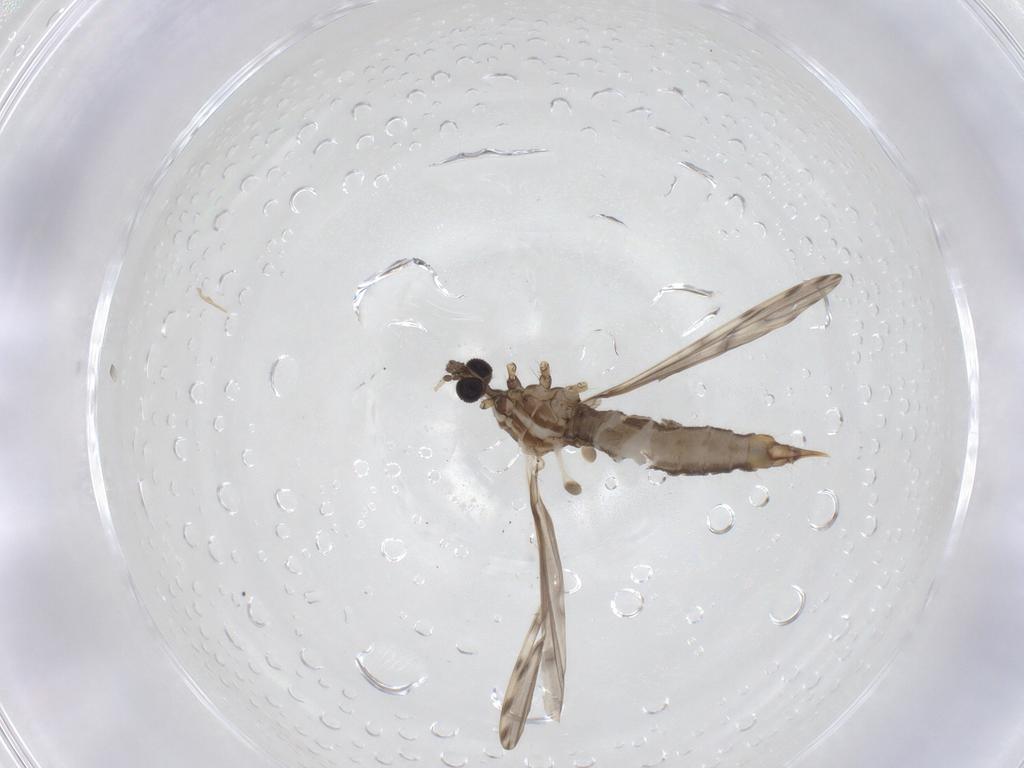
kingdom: Animalia
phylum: Arthropoda
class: Insecta
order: Diptera
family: Limoniidae
